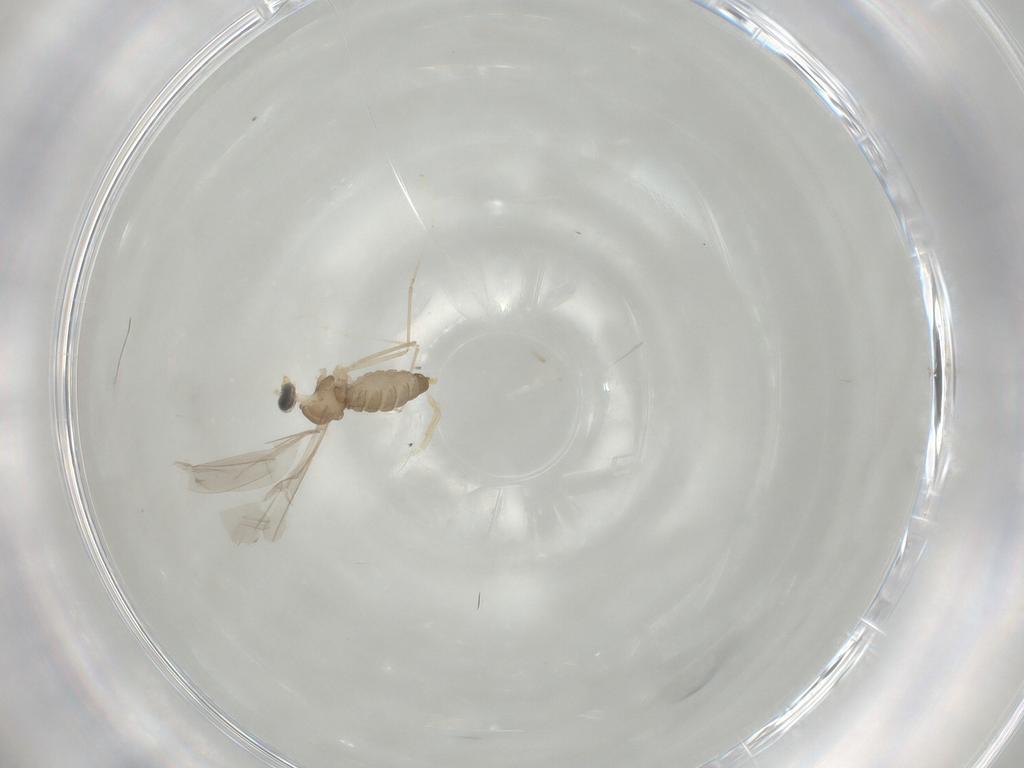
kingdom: Animalia
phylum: Arthropoda
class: Insecta
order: Diptera
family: Cecidomyiidae
